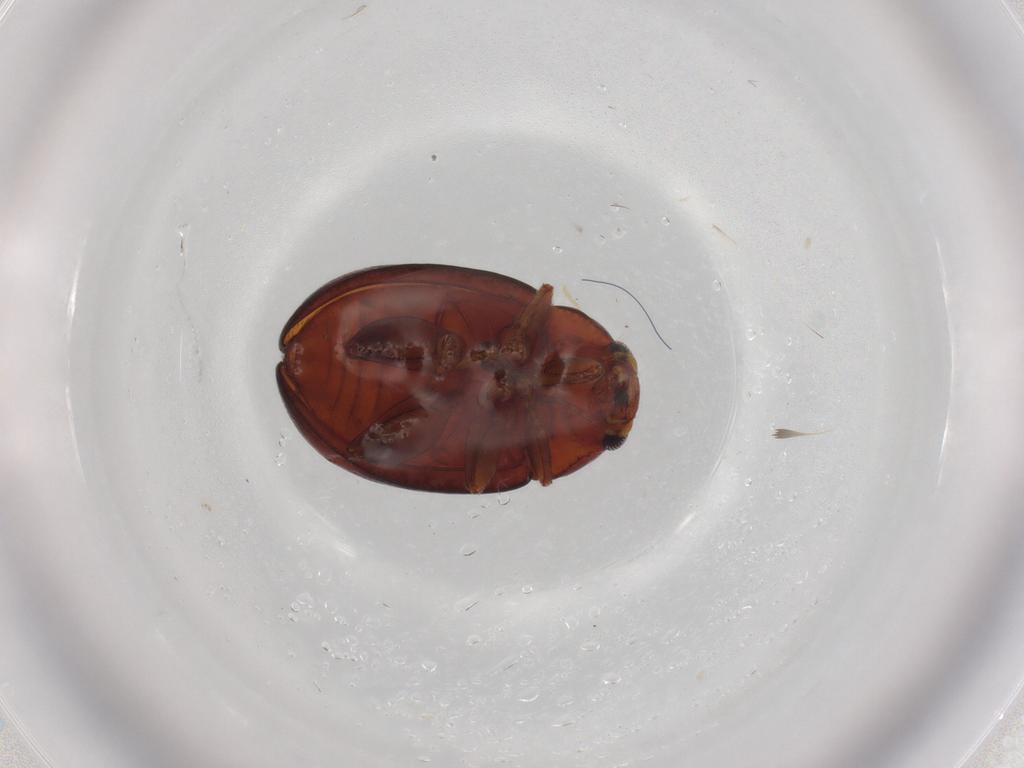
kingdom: Animalia
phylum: Arthropoda
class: Insecta
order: Coleoptera
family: Chrysomelidae
